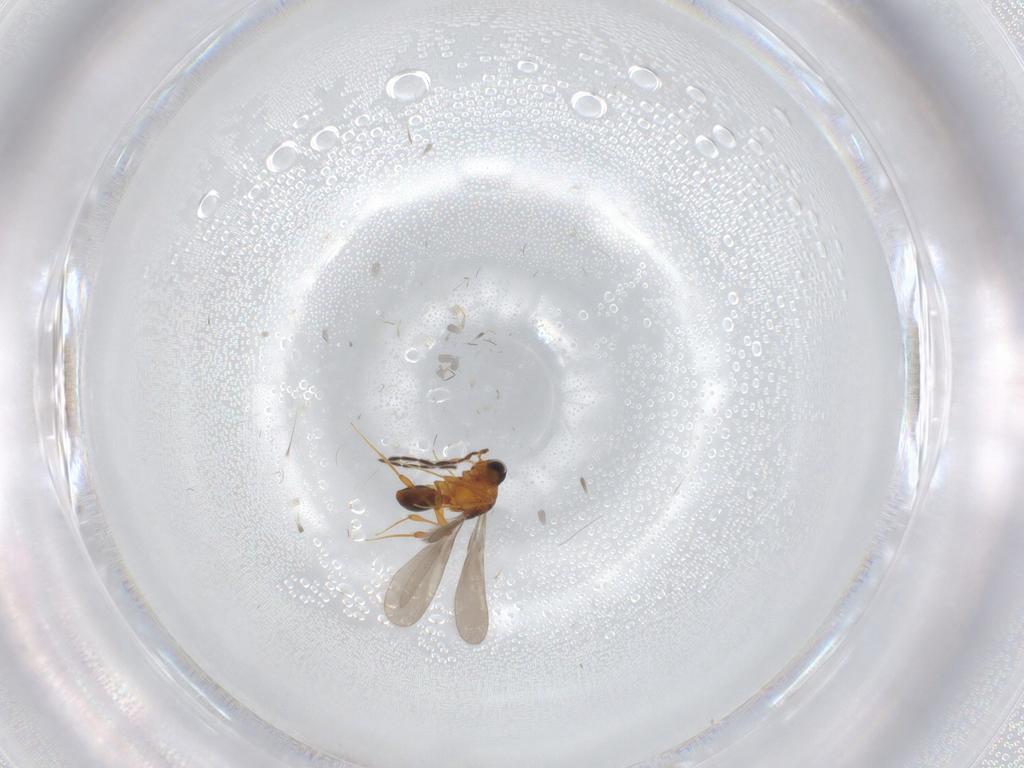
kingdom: Animalia
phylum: Arthropoda
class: Insecta
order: Hymenoptera
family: Platygastridae
